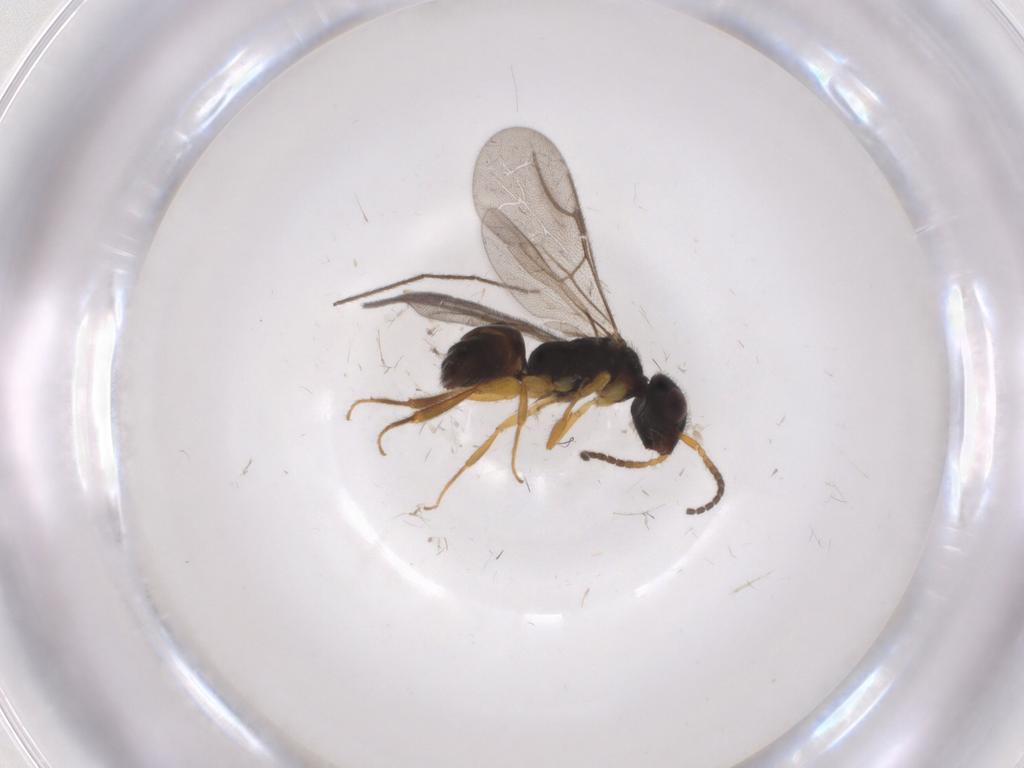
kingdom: Animalia
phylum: Arthropoda
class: Insecta
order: Hymenoptera
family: Bethylidae
